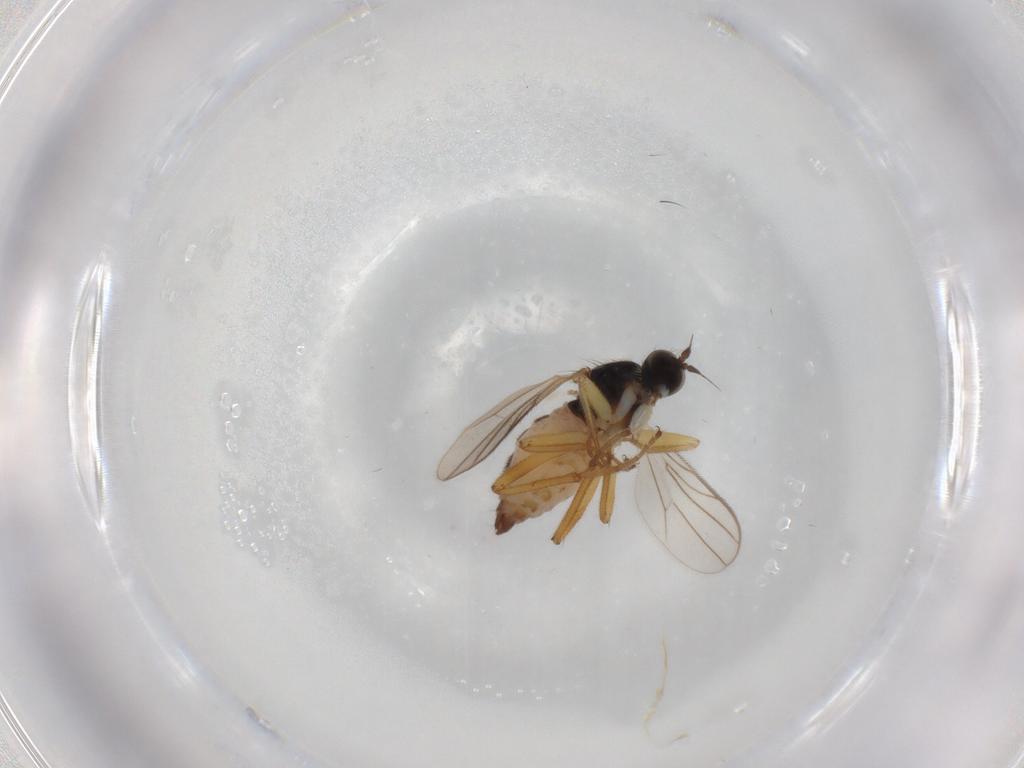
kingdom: Animalia
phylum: Arthropoda
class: Insecta
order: Diptera
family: Hybotidae
